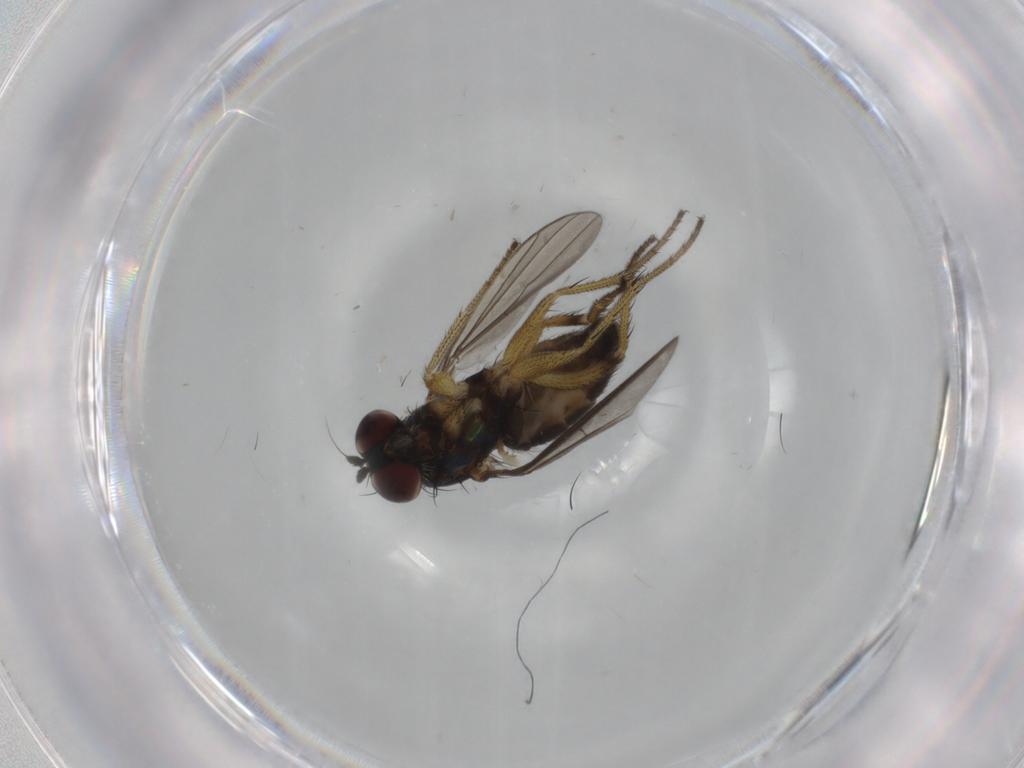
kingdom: Animalia
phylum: Arthropoda
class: Insecta
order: Diptera
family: Dolichopodidae
